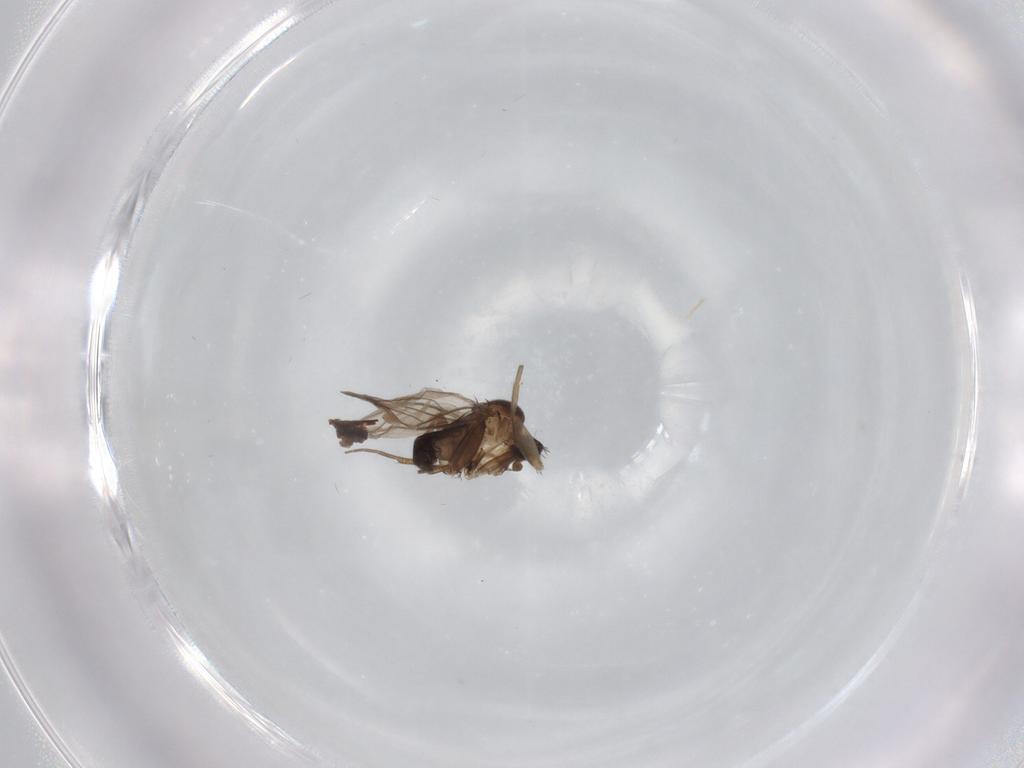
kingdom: Animalia
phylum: Arthropoda
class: Insecta
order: Diptera
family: Phoridae
